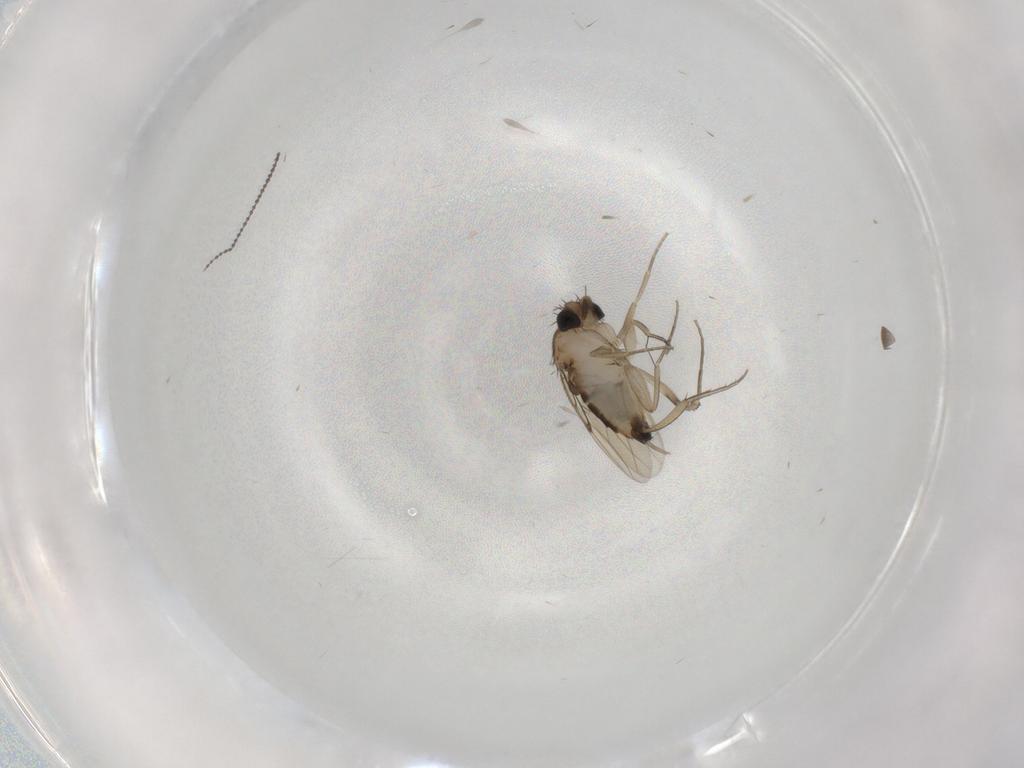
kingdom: Animalia
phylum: Arthropoda
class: Insecta
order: Diptera
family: Phoridae
